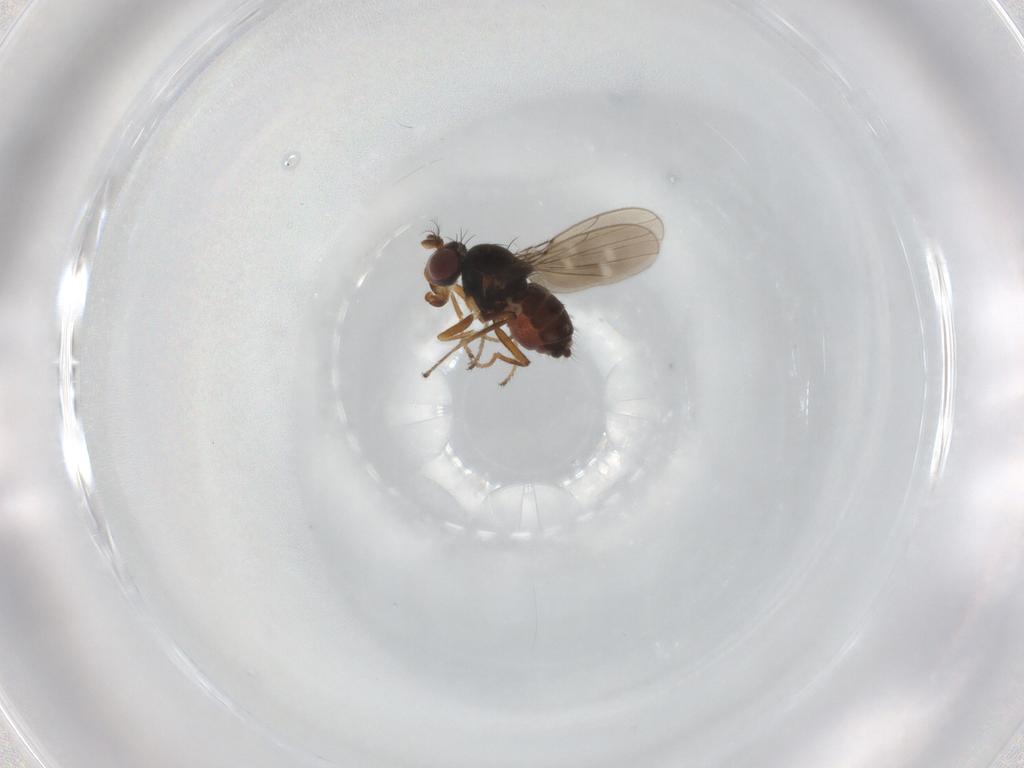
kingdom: Animalia
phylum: Arthropoda
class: Insecta
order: Diptera
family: Ephydridae
